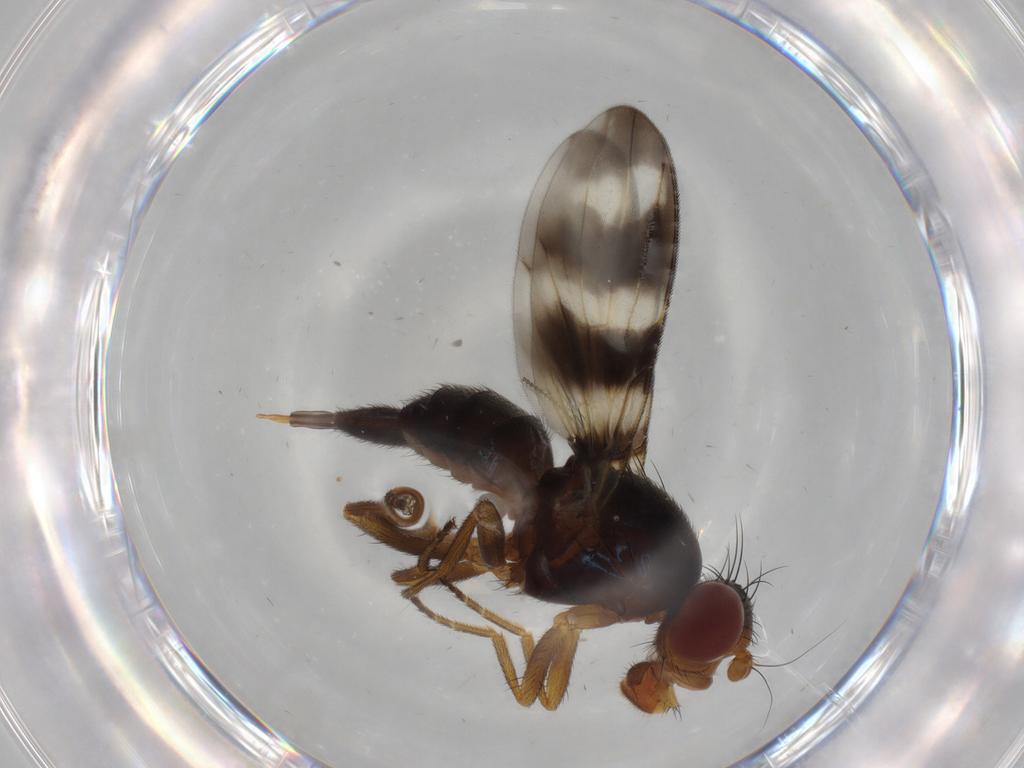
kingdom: Animalia
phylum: Arthropoda
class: Insecta
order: Diptera
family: Ulidiidae
